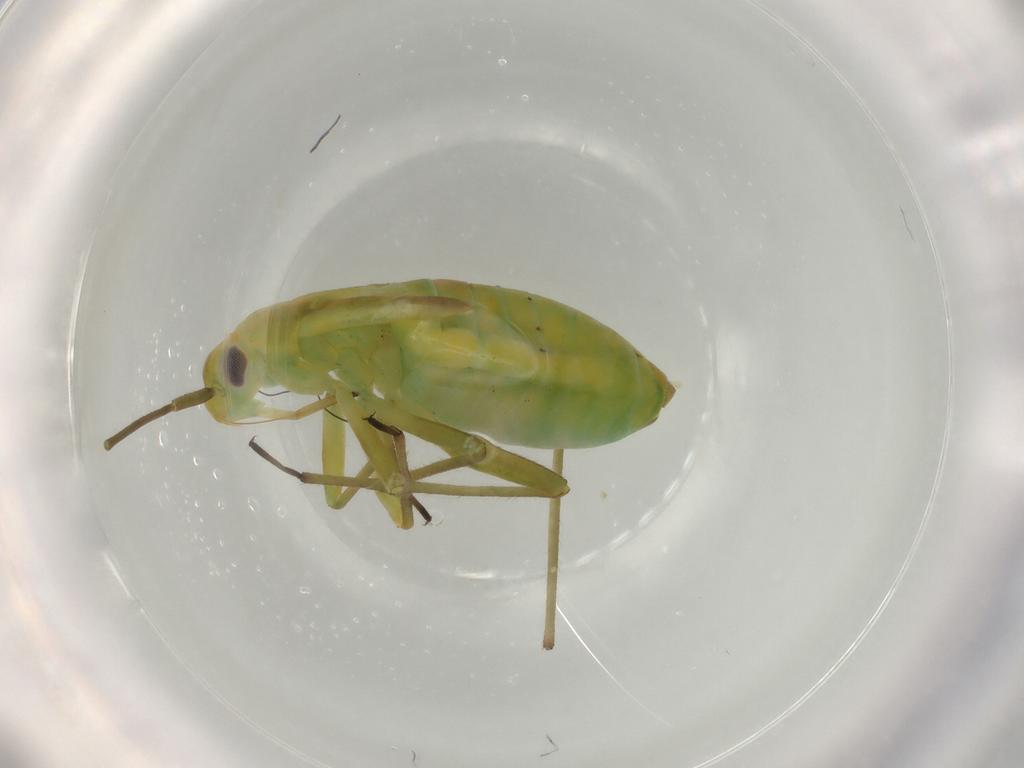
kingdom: Animalia
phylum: Arthropoda
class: Insecta
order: Hemiptera
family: Miridae
